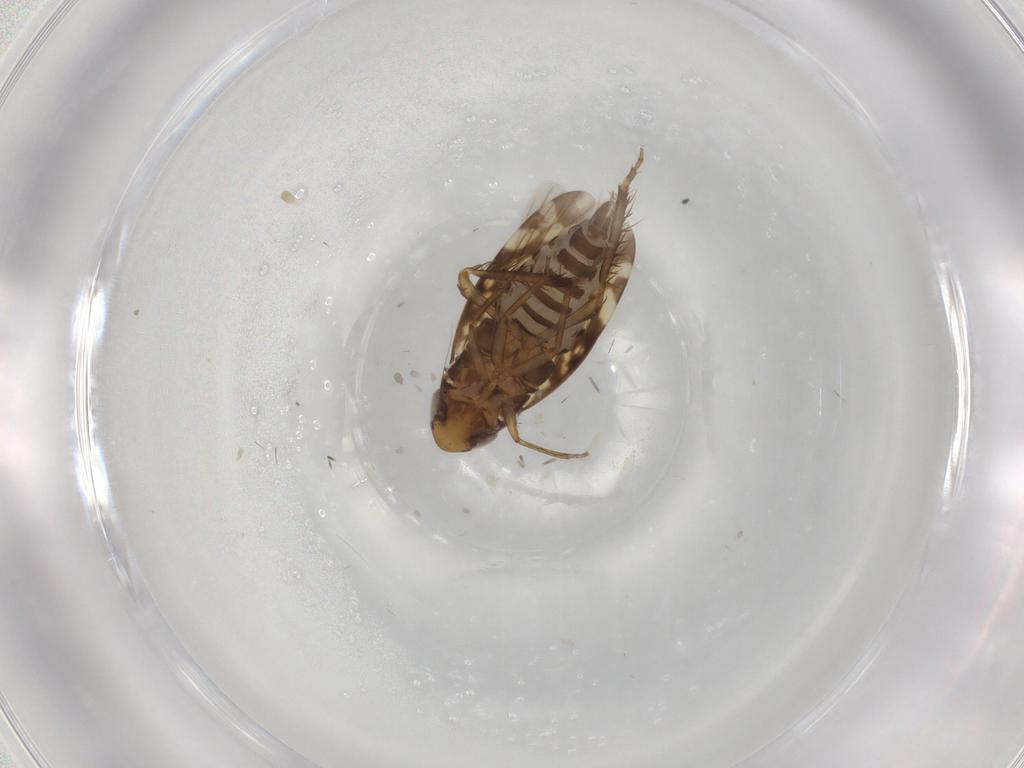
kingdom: Animalia
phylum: Arthropoda
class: Insecta
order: Hemiptera
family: Cicadellidae
